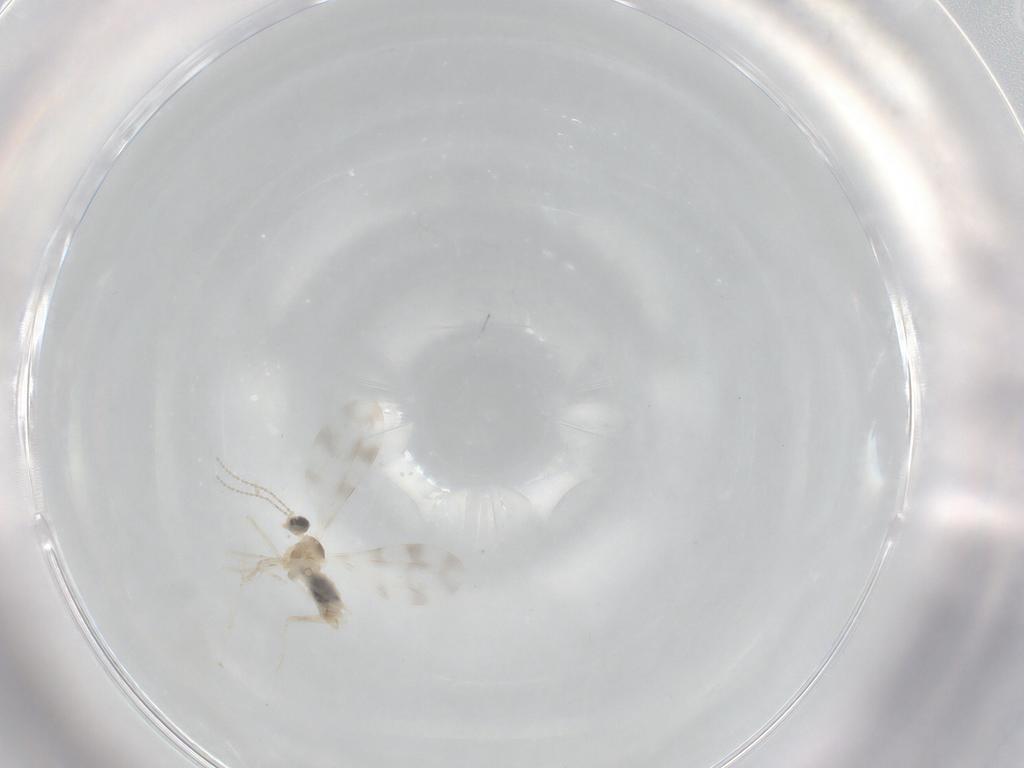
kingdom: Animalia
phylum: Arthropoda
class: Insecta
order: Diptera
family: Cecidomyiidae
